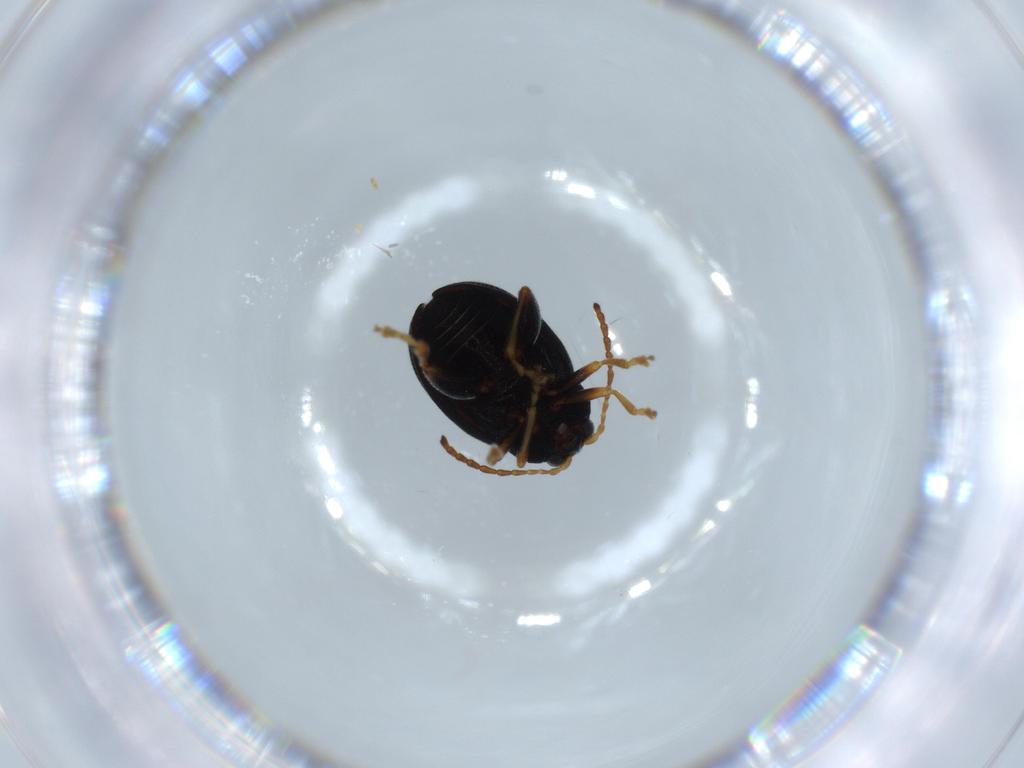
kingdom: Animalia
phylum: Arthropoda
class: Insecta
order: Coleoptera
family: Chrysomelidae
